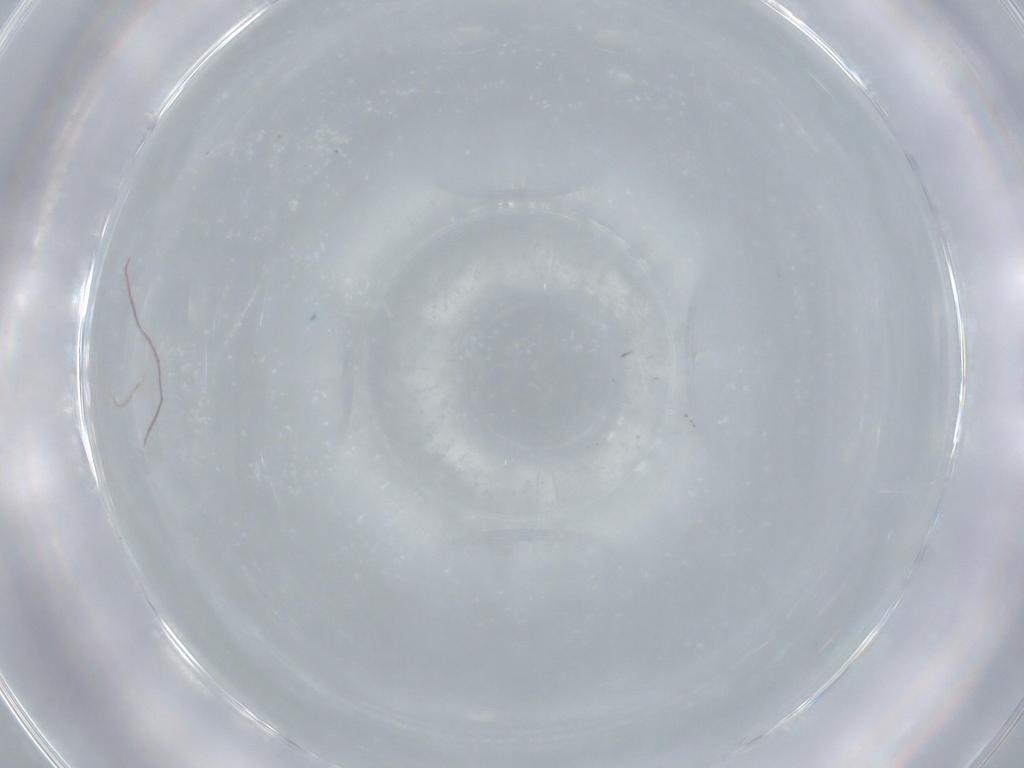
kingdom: Animalia
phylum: Arthropoda
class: Insecta
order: Diptera
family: Cecidomyiidae
